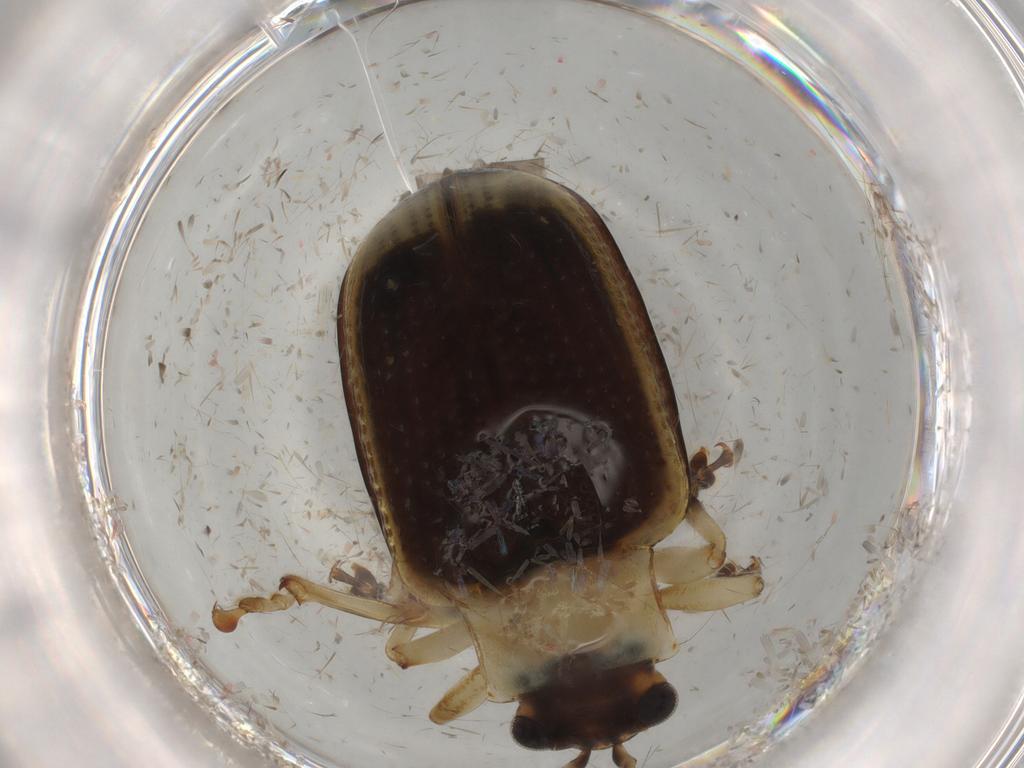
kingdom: Animalia
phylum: Arthropoda
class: Insecta
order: Coleoptera
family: Chrysomelidae
